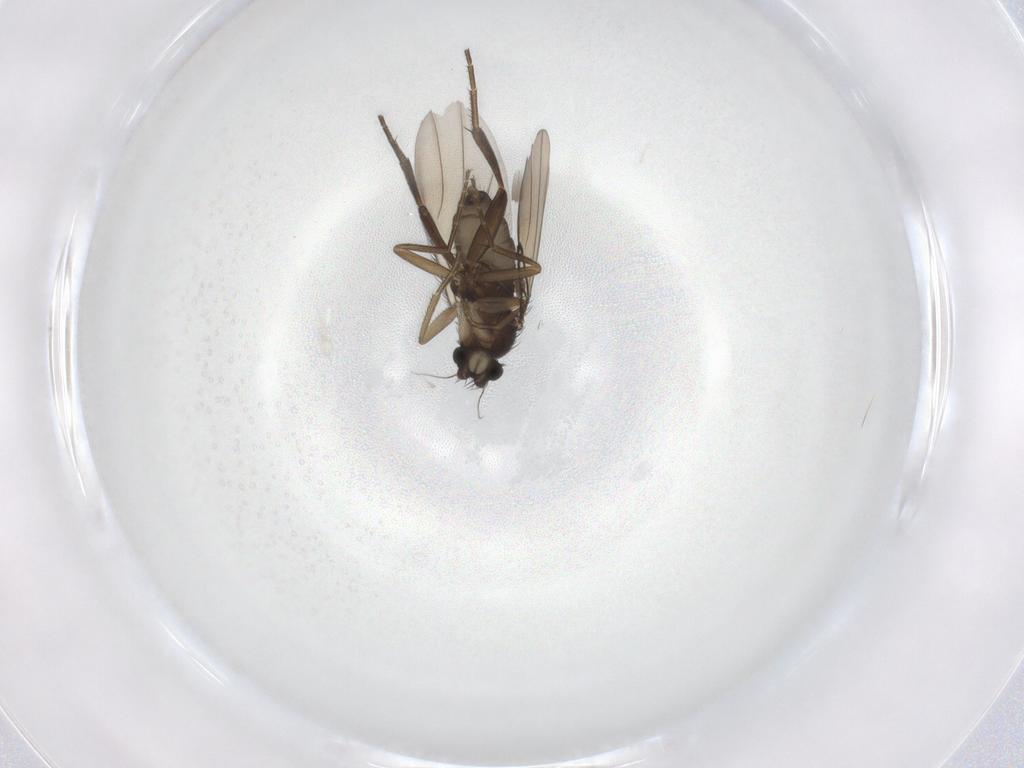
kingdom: Animalia
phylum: Arthropoda
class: Insecta
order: Diptera
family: Phoridae
